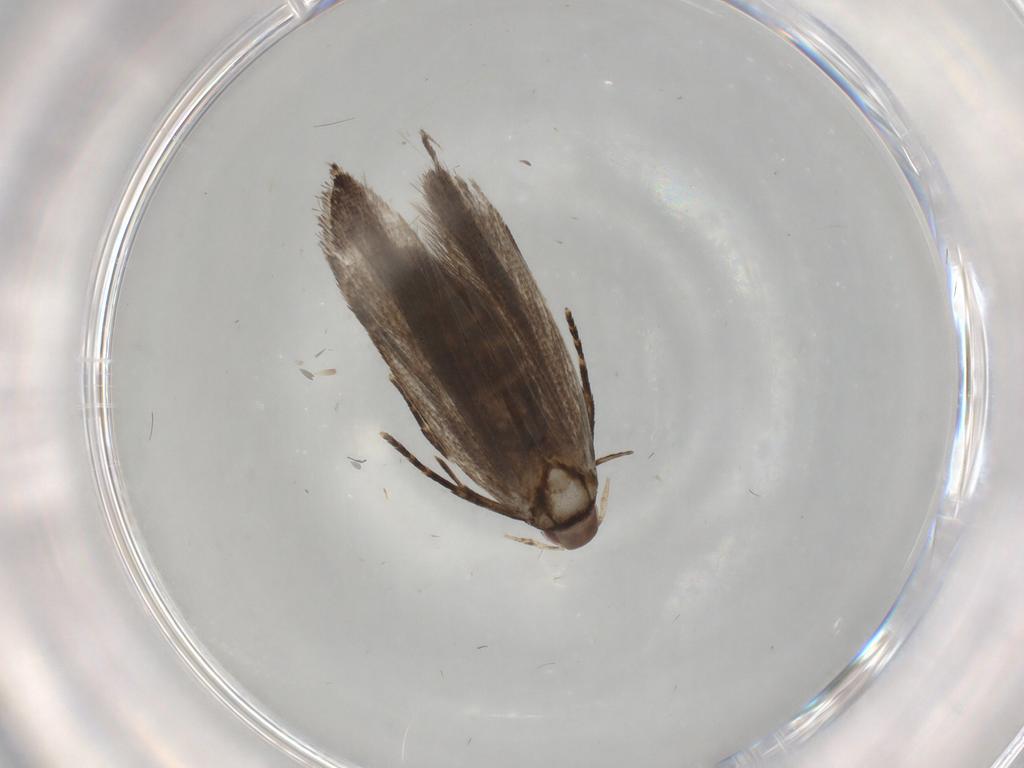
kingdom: Animalia
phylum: Arthropoda
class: Insecta
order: Lepidoptera
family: Gelechiidae
